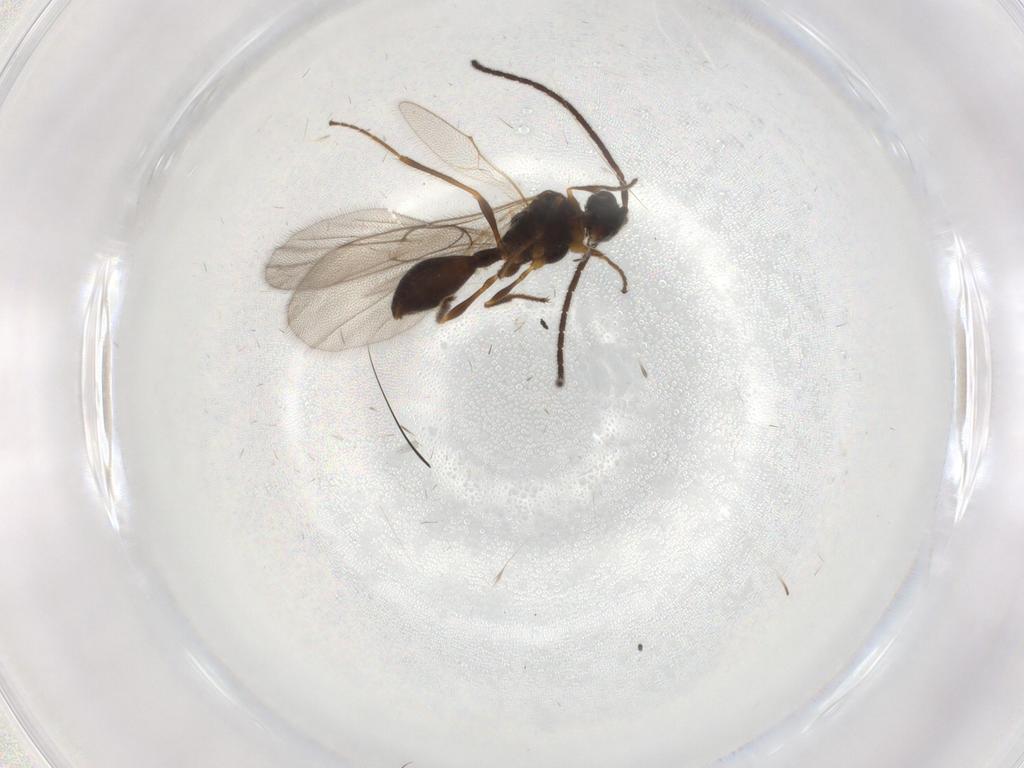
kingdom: Animalia
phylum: Arthropoda
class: Insecta
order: Hymenoptera
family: Diapriidae
